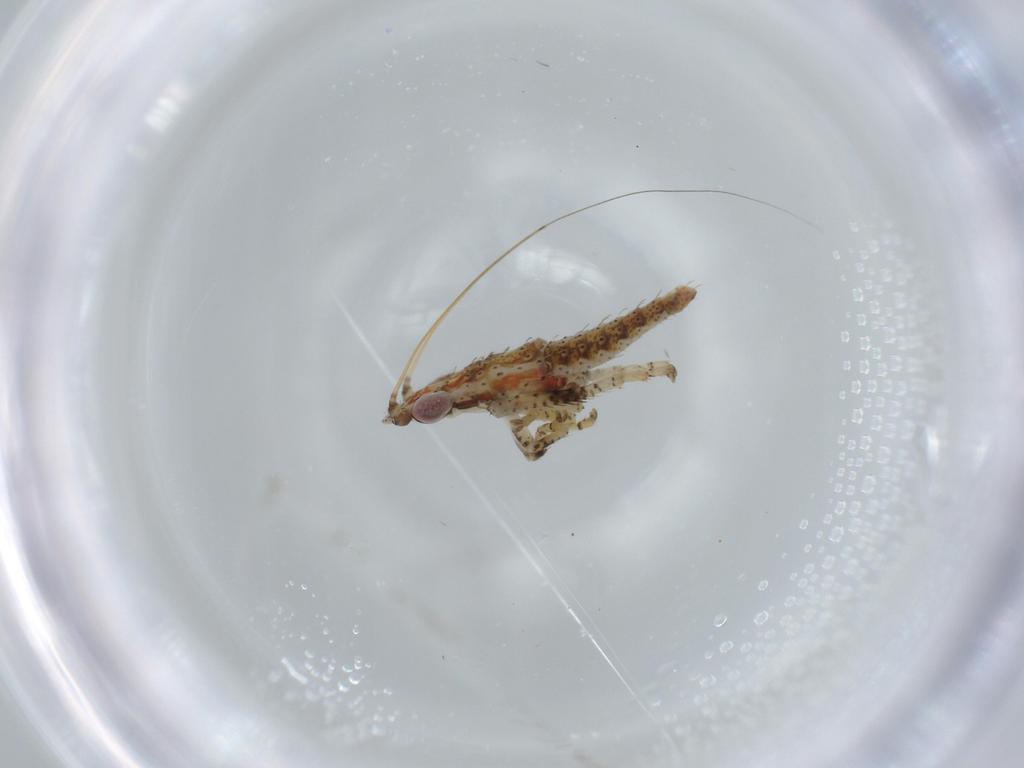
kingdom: Animalia
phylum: Arthropoda
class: Insecta
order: Hemiptera
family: Cicadellidae
